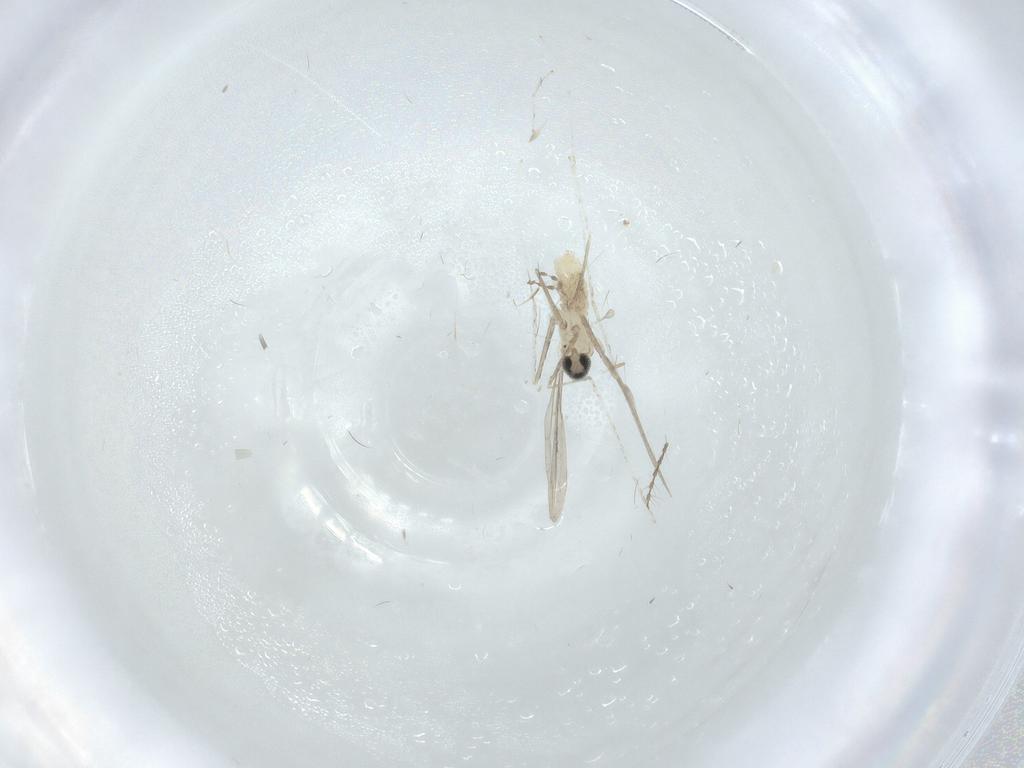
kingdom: Animalia
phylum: Arthropoda
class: Insecta
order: Diptera
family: Cecidomyiidae
